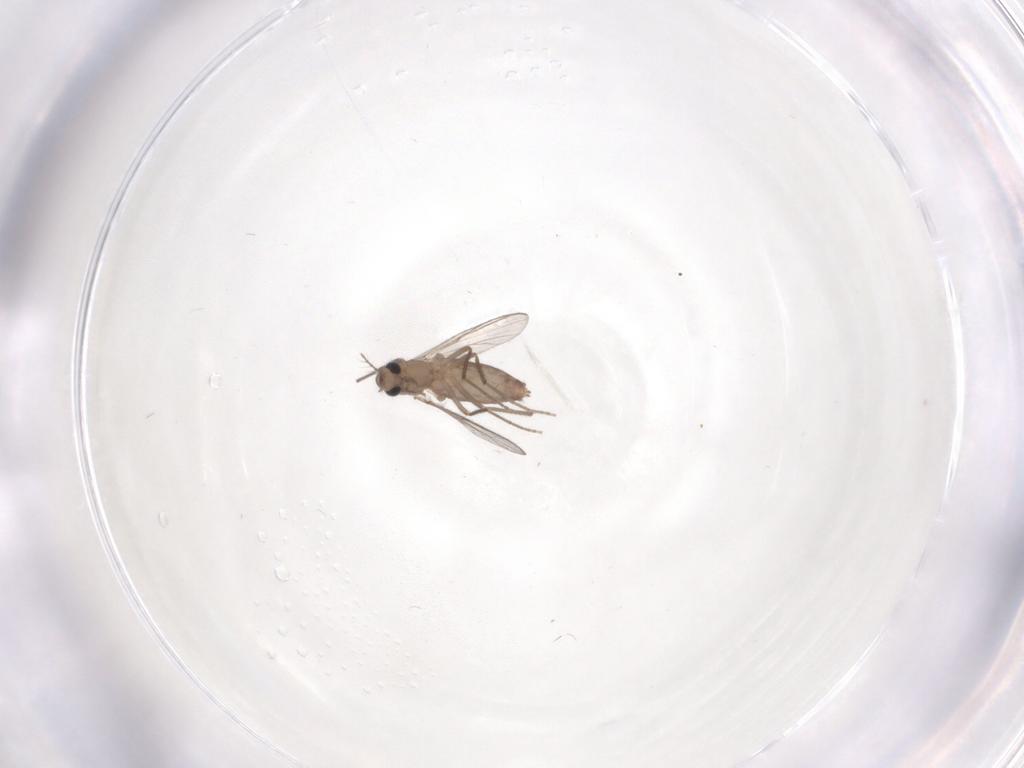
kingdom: Animalia
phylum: Arthropoda
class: Insecta
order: Diptera
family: Chironomidae
